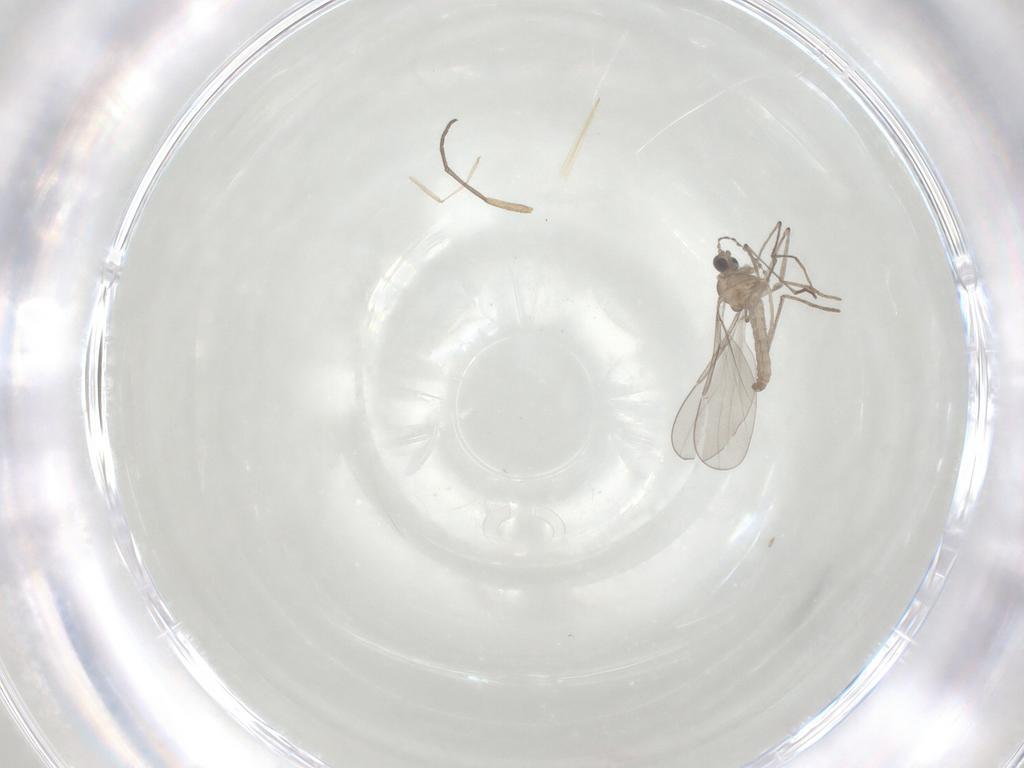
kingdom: Animalia
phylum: Arthropoda
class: Insecta
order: Diptera
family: Cecidomyiidae
